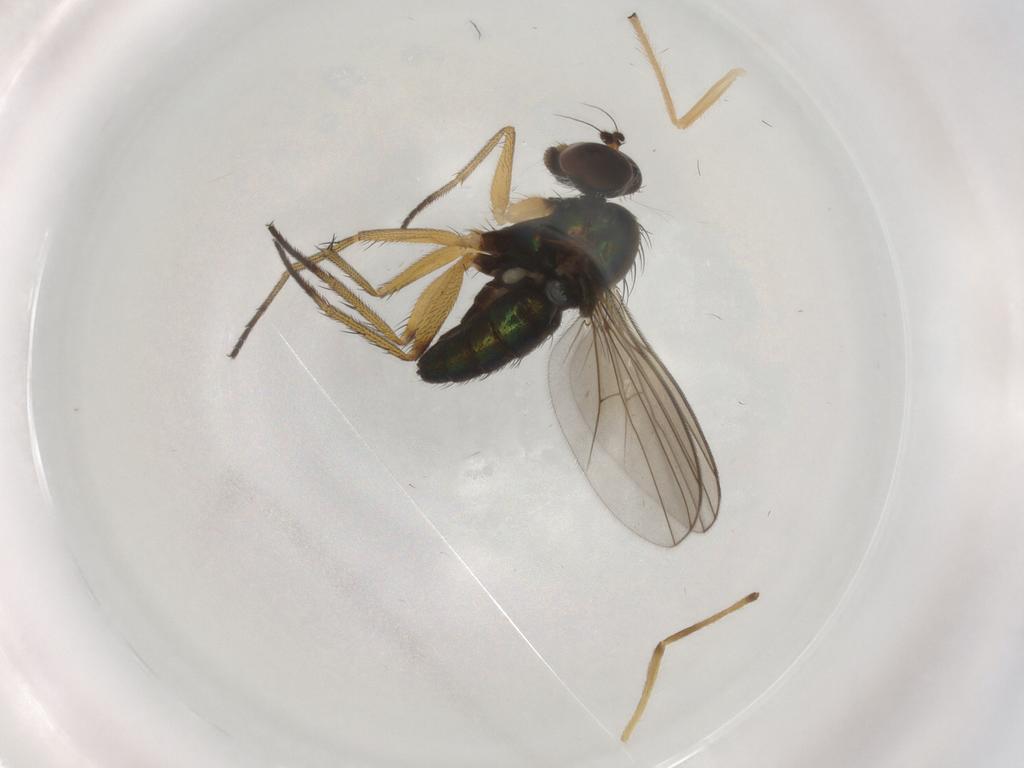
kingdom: Animalia
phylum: Arthropoda
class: Insecta
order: Diptera
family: Dolichopodidae
